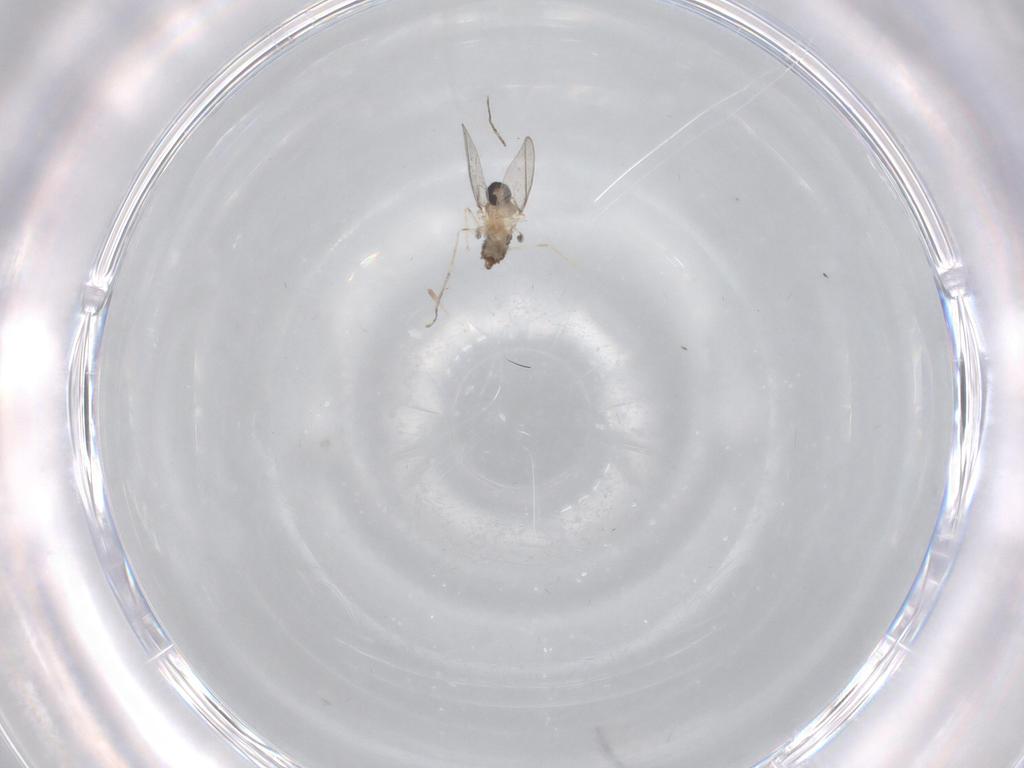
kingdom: Animalia
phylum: Arthropoda
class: Insecta
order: Diptera
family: Cecidomyiidae
